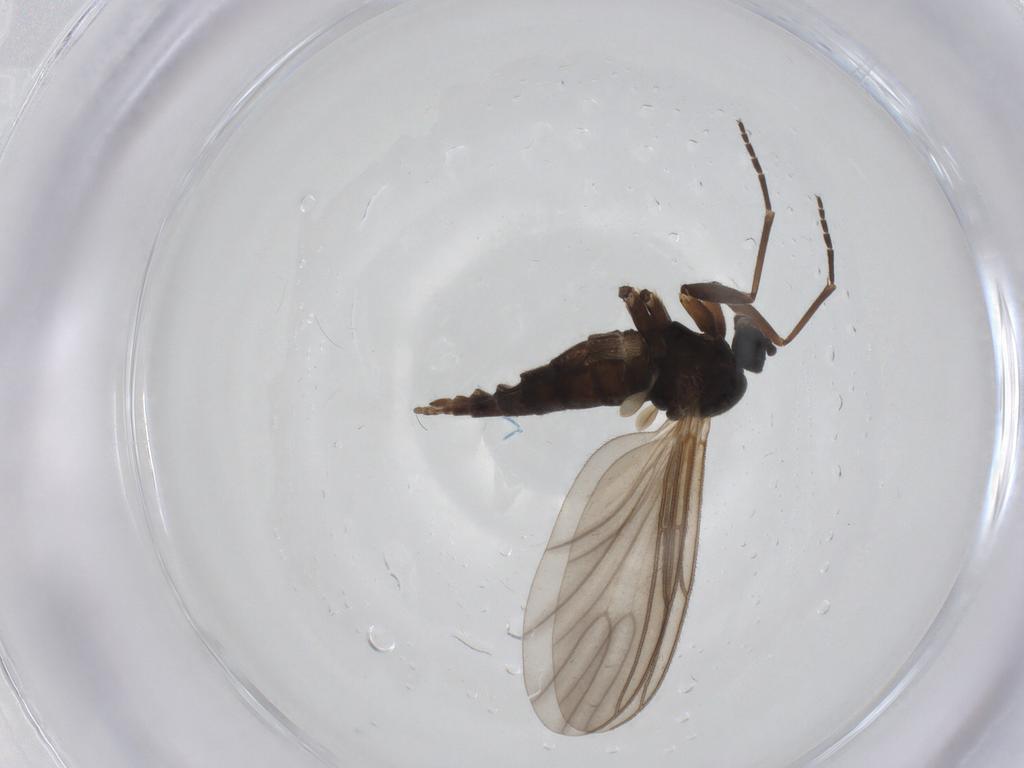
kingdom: Animalia
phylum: Arthropoda
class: Insecta
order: Diptera
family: Sciaridae
